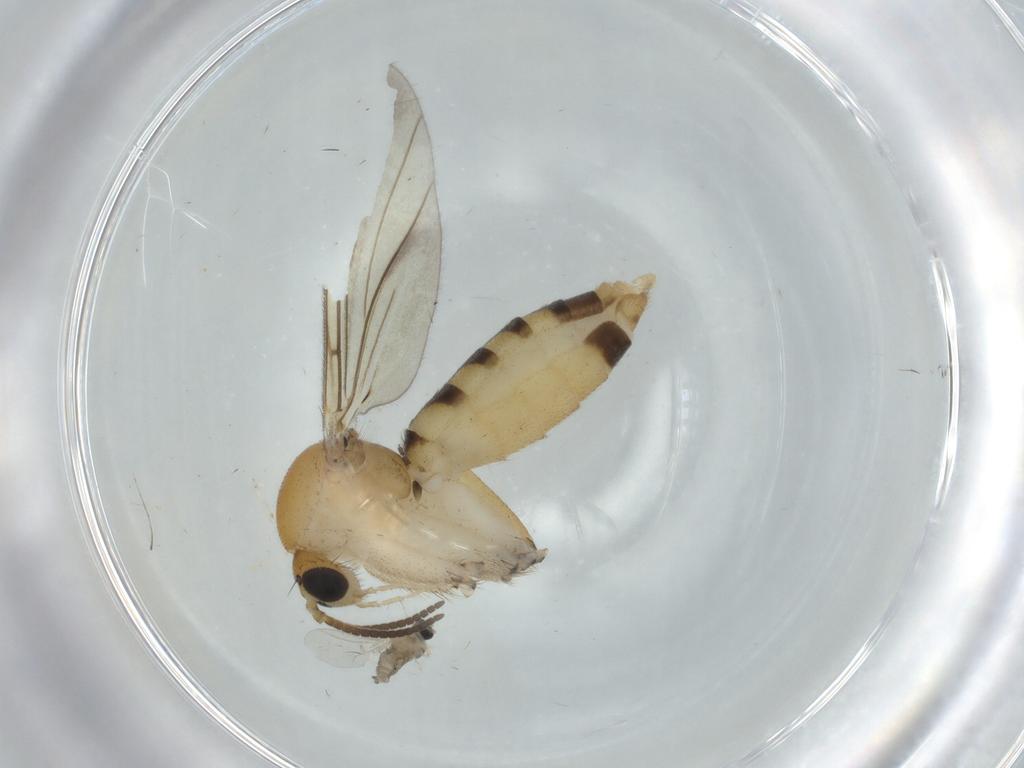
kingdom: Animalia
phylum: Arthropoda
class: Insecta
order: Diptera
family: Mycetophilidae
